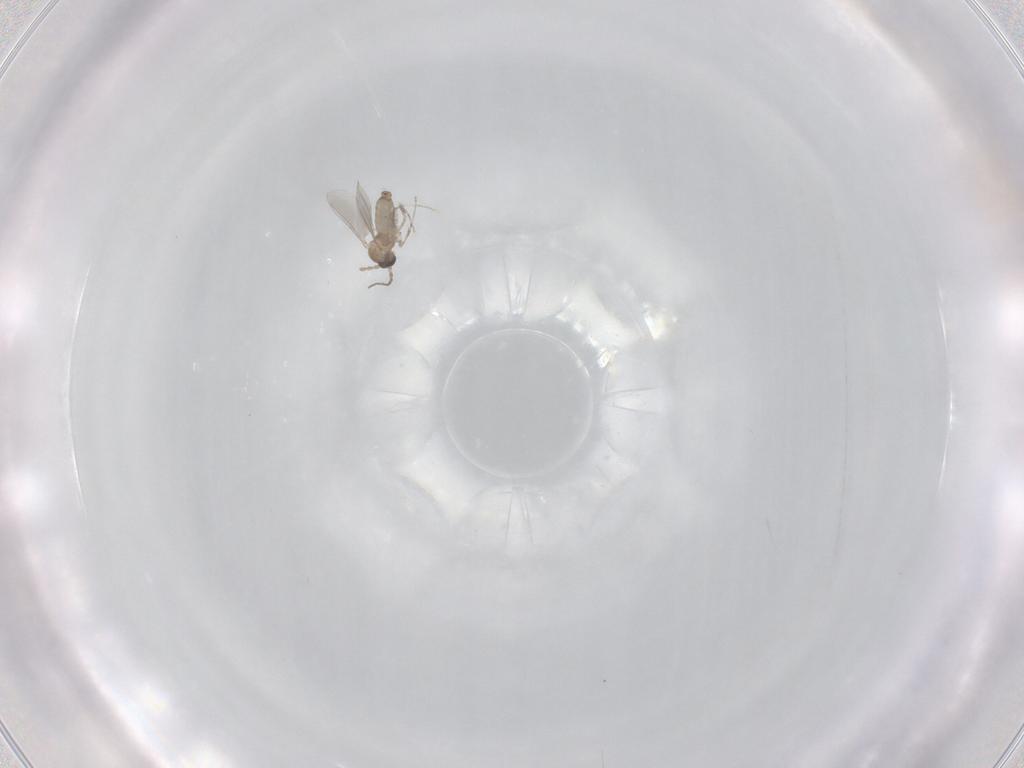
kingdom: Animalia
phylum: Arthropoda
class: Insecta
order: Diptera
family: Cecidomyiidae
